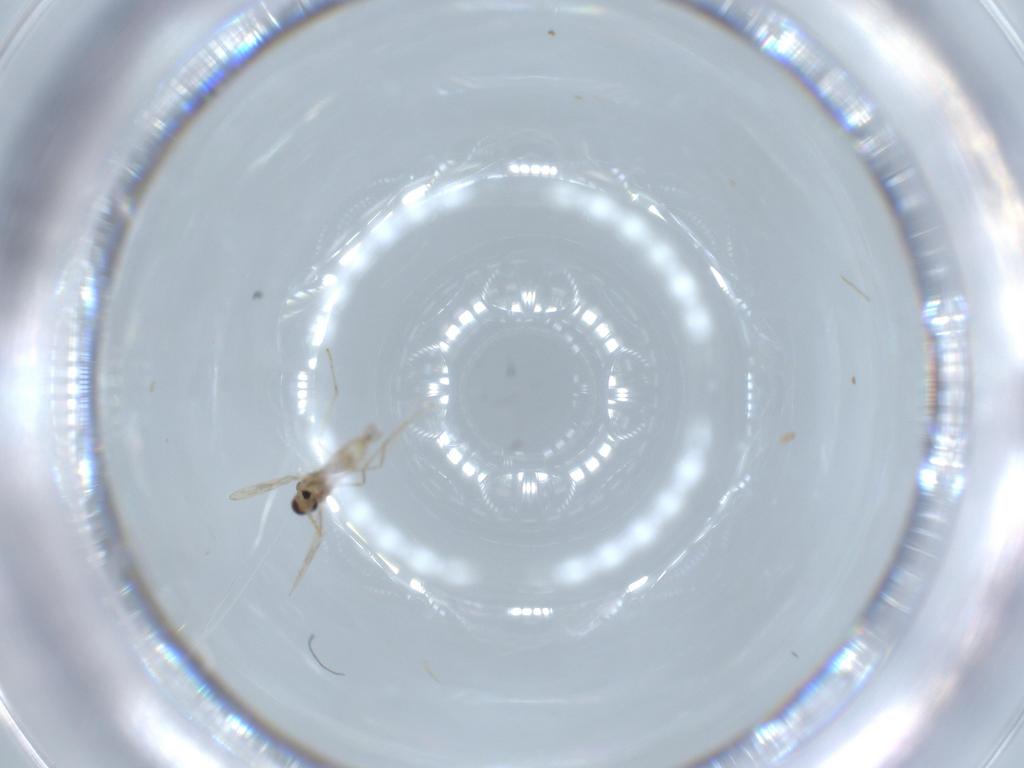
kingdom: Animalia
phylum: Arthropoda
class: Insecta
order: Diptera
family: Cecidomyiidae
